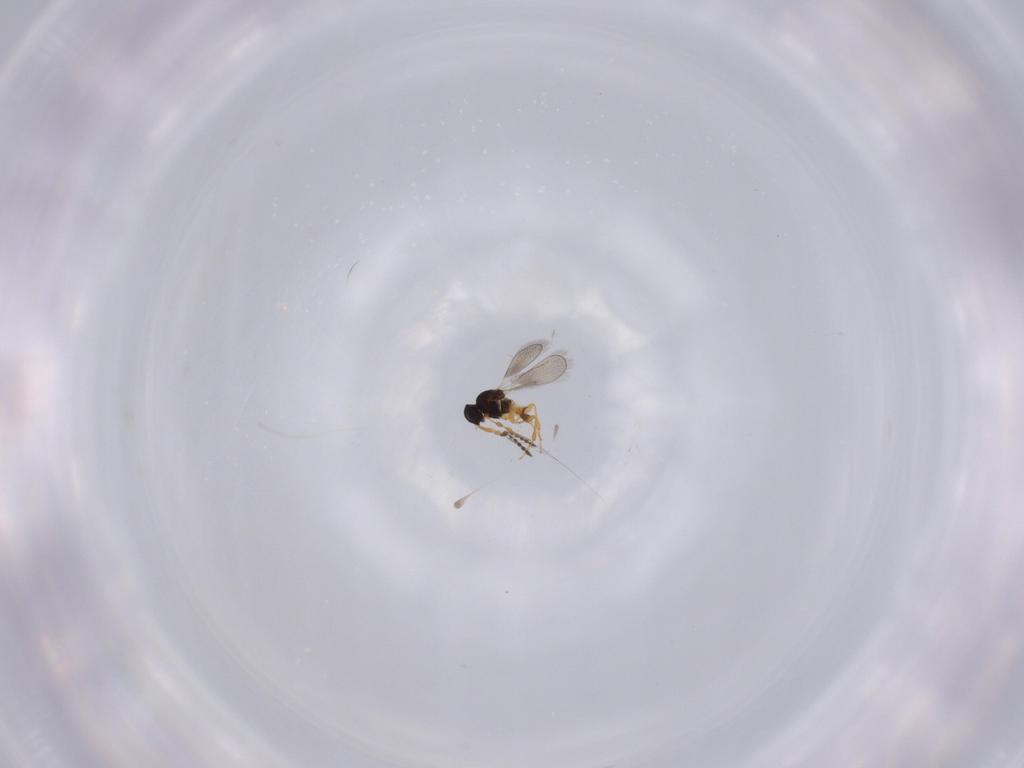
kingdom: Animalia
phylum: Arthropoda
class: Insecta
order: Hymenoptera
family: Platygastridae
